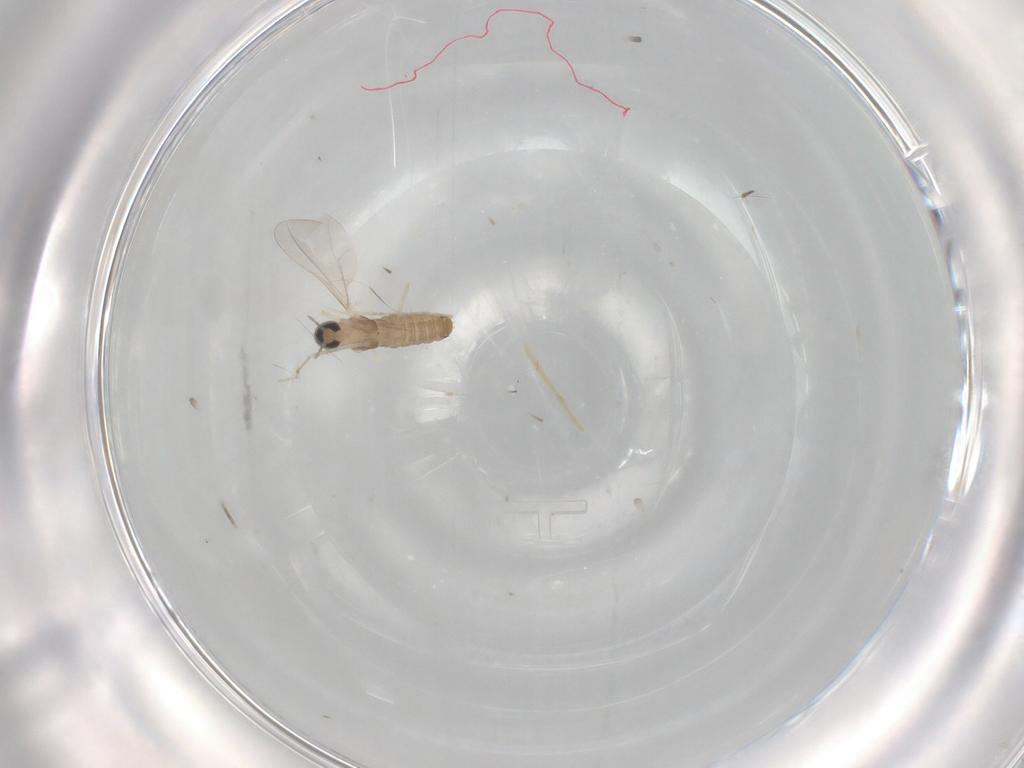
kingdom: Animalia
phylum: Arthropoda
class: Insecta
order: Diptera
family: Cecidomyiidae
